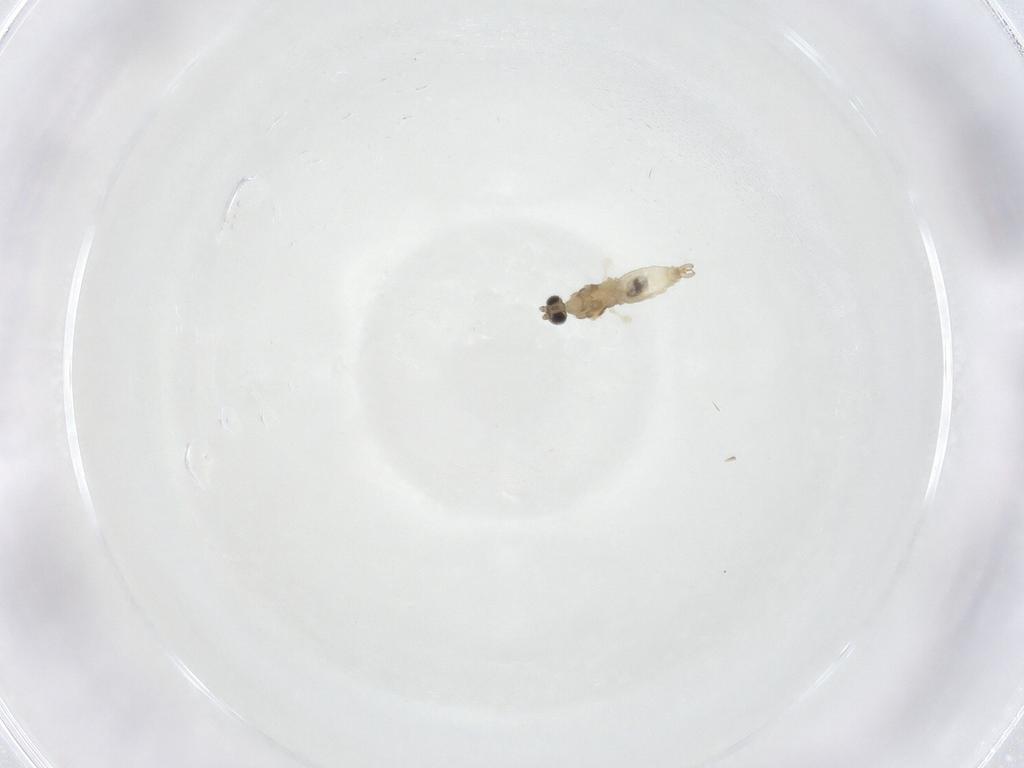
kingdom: Animalia
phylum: Arthropoda
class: Insecta
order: Diptera
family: Cecidomyiidae
